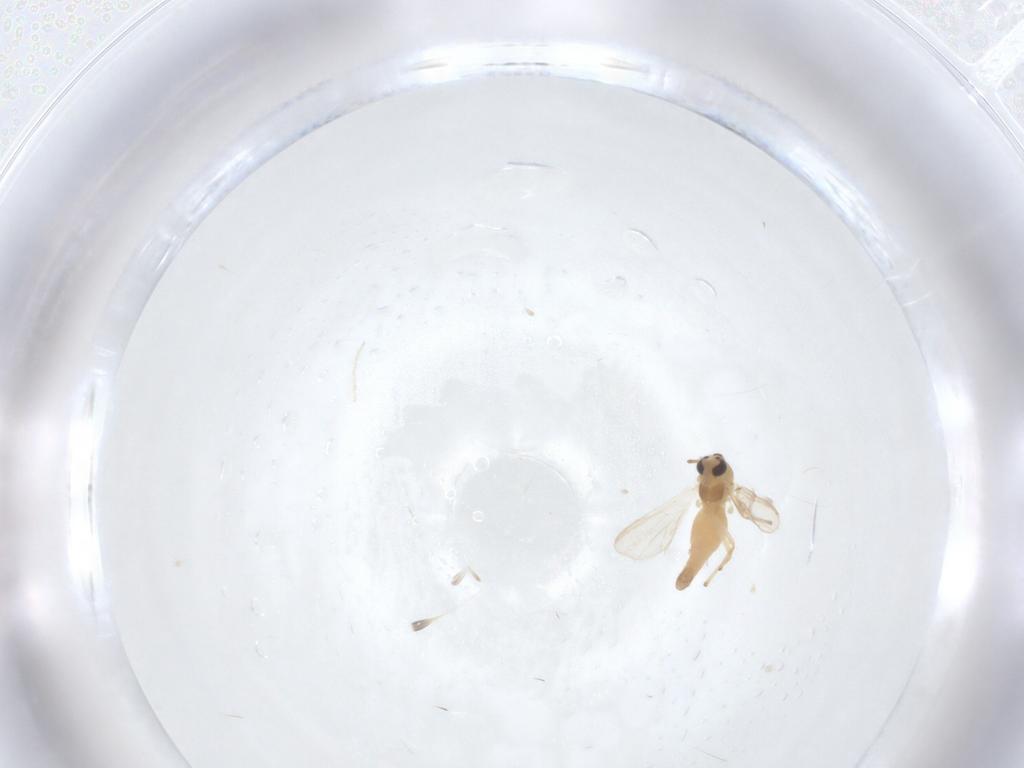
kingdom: Animalia
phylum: Arthropoda
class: Insecta
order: Diptera
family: Chironomidae
